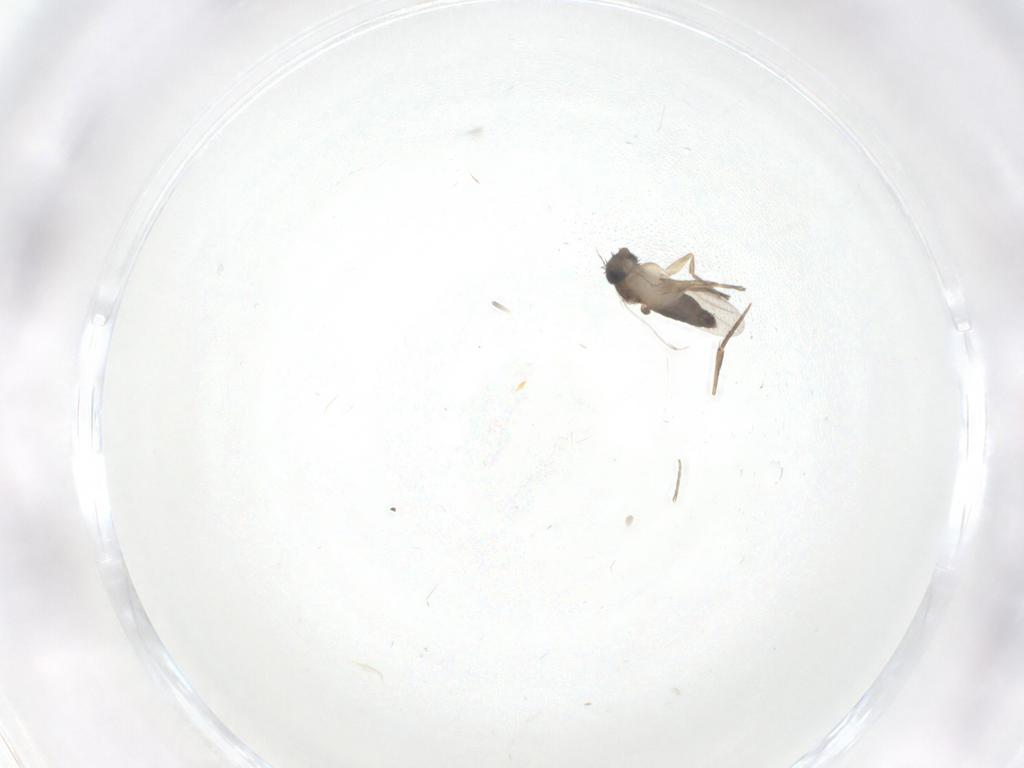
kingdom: Animalia
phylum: Arthropoda
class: Insecta
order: Diptera
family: Phoridae
